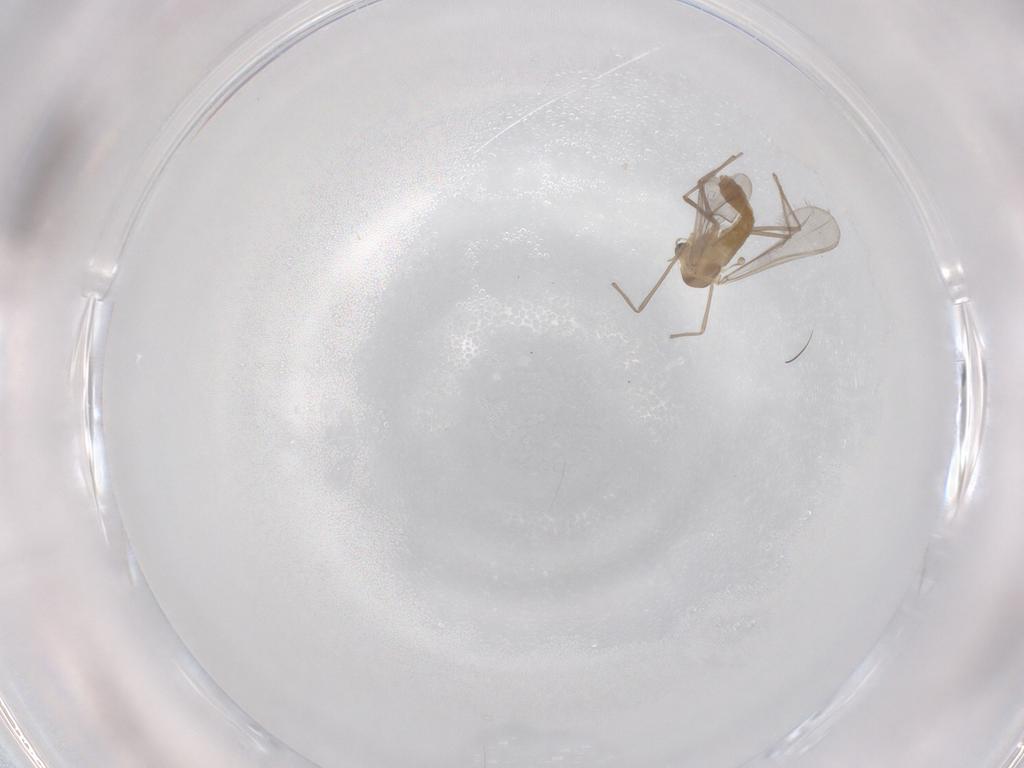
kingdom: Animalia
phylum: Arthropoda
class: Insecta
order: Diptera
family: Chironomidae
